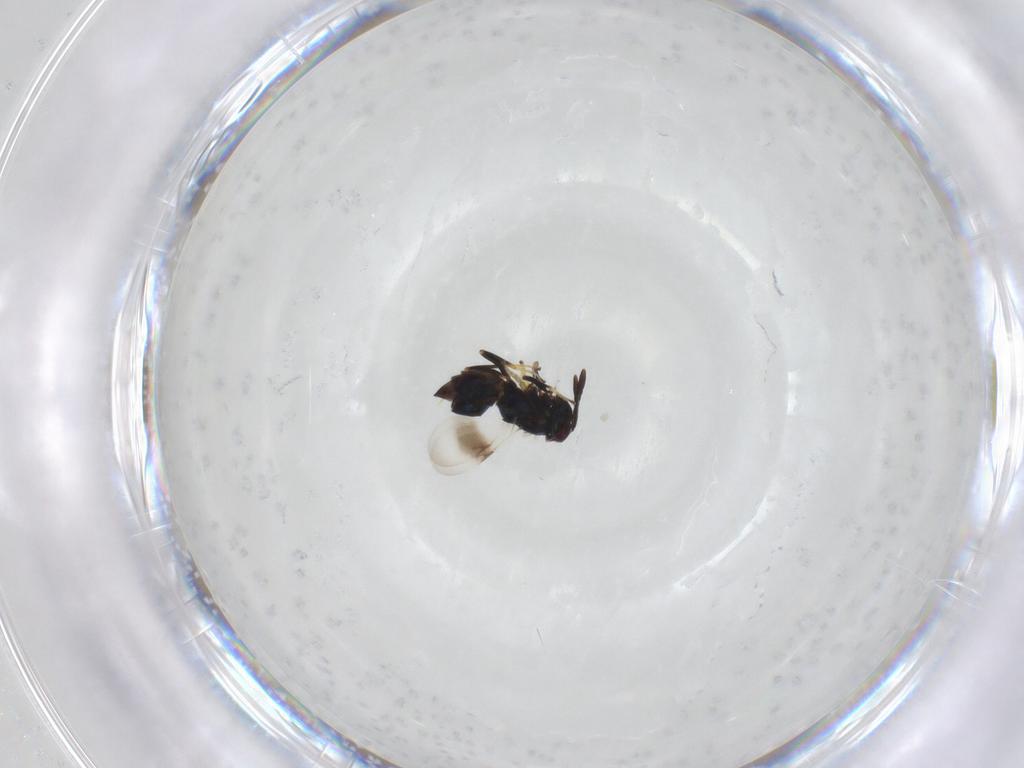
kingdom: Animalia
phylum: Arthropoda
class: Insecta
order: Hymenoptera
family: Crabronidae
